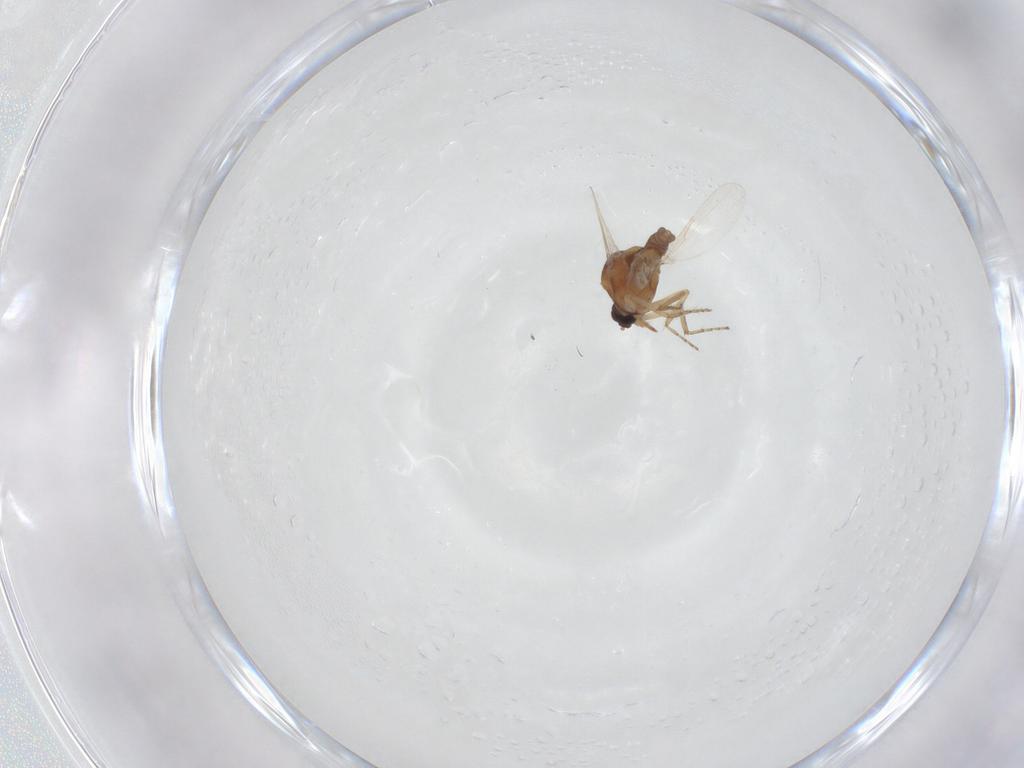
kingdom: Animalia
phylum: Arthropoda
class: Insecta
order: Diptera
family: Ceratopogonidae
